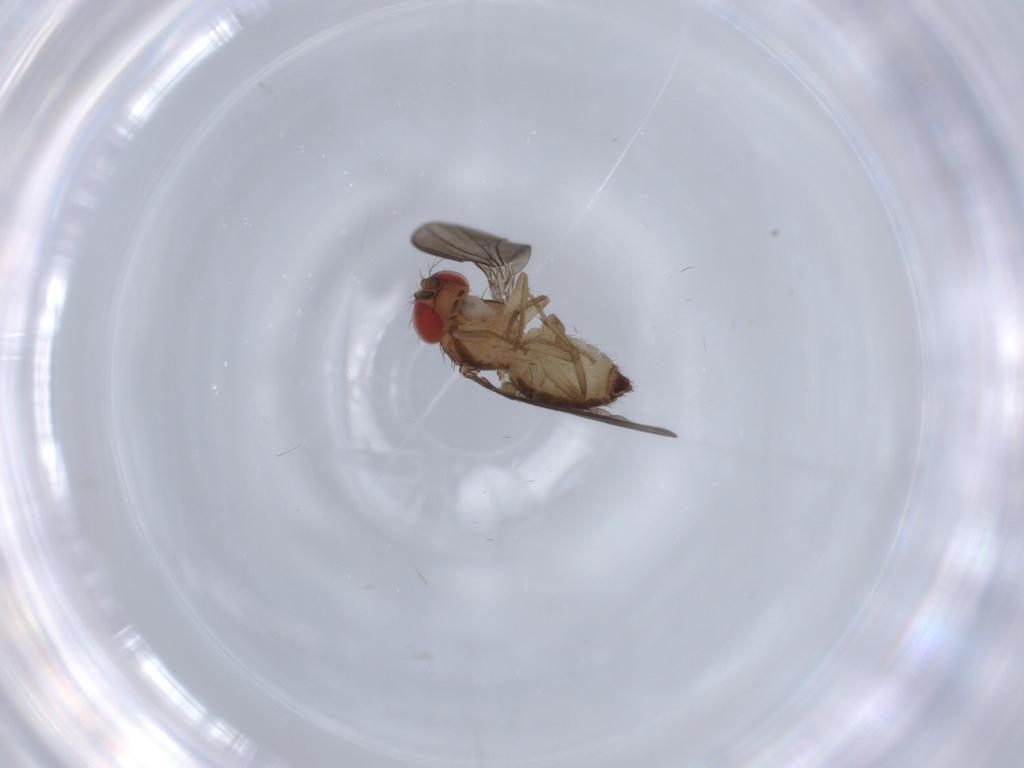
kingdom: Animalia
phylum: Arthropoda
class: Insecta
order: Diptera
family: Drosophilidae
